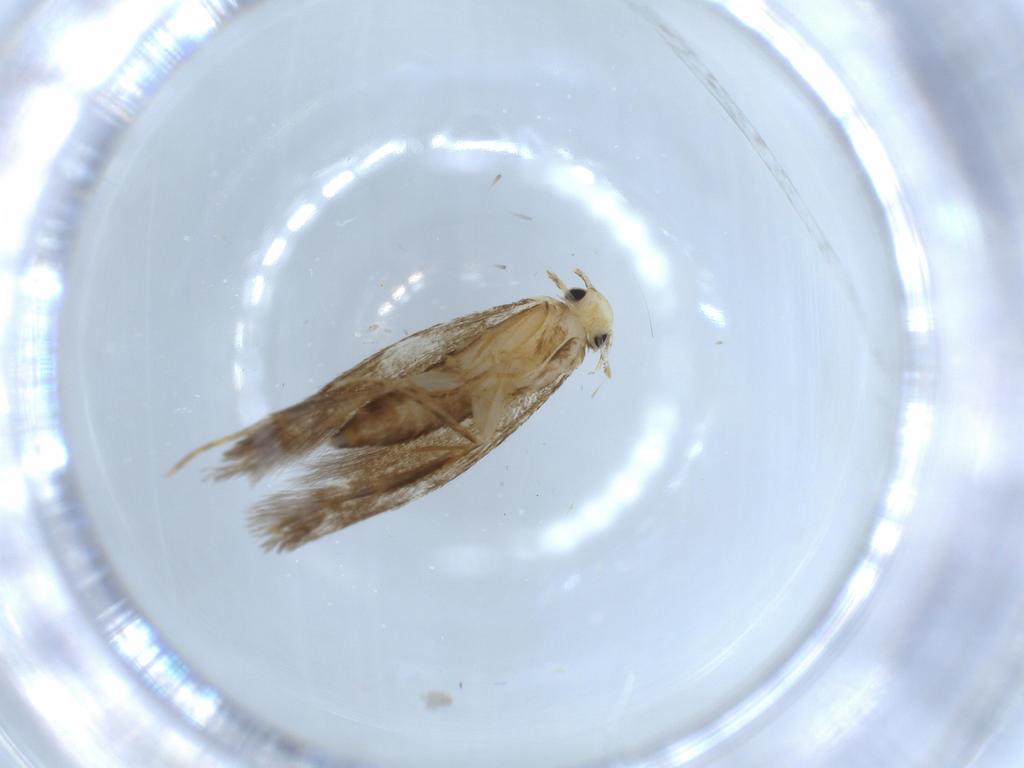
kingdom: Animalia
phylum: Arthropoda
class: Insecta
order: Lepidoptera
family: Tineidae
